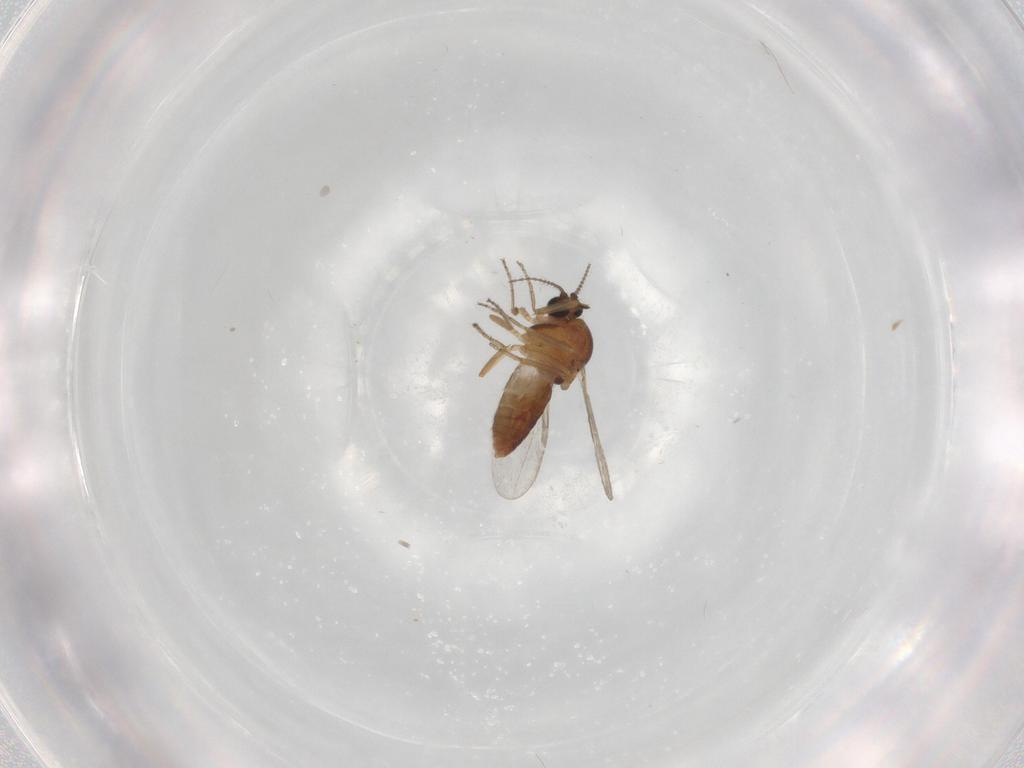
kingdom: Animalia
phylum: Arthropoda
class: Insecta
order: Diptera
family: Ceratopogonidae
